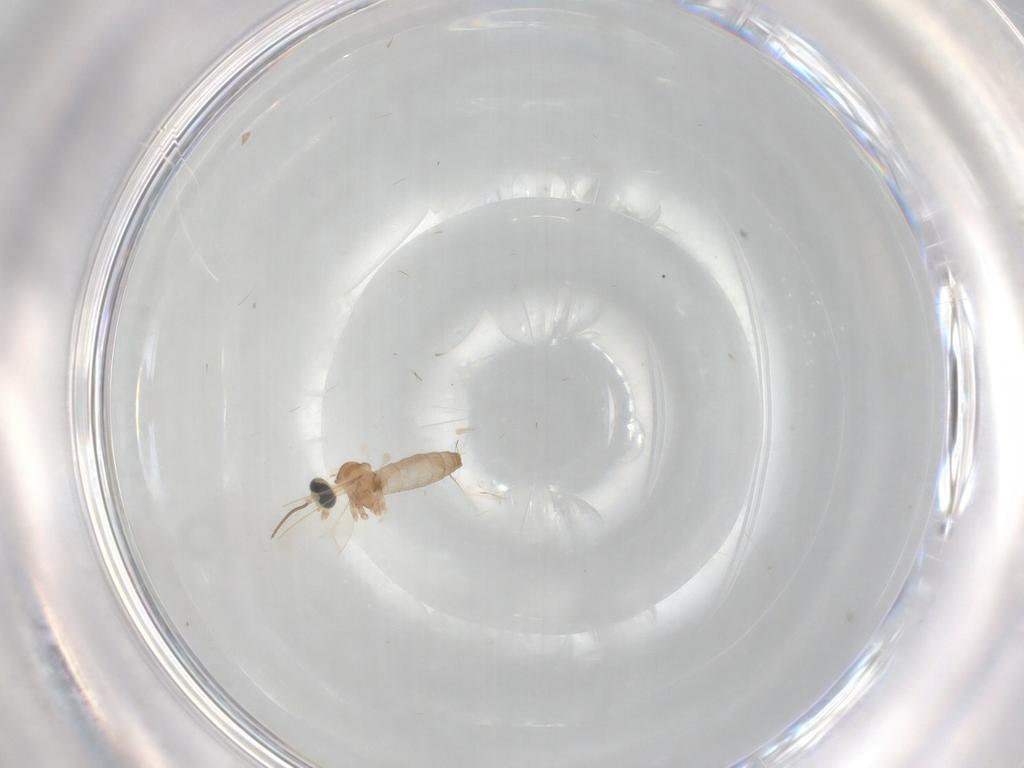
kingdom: Animalia
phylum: Arthropoda
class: Insecta
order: Diptera
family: Cecidomyiidae
